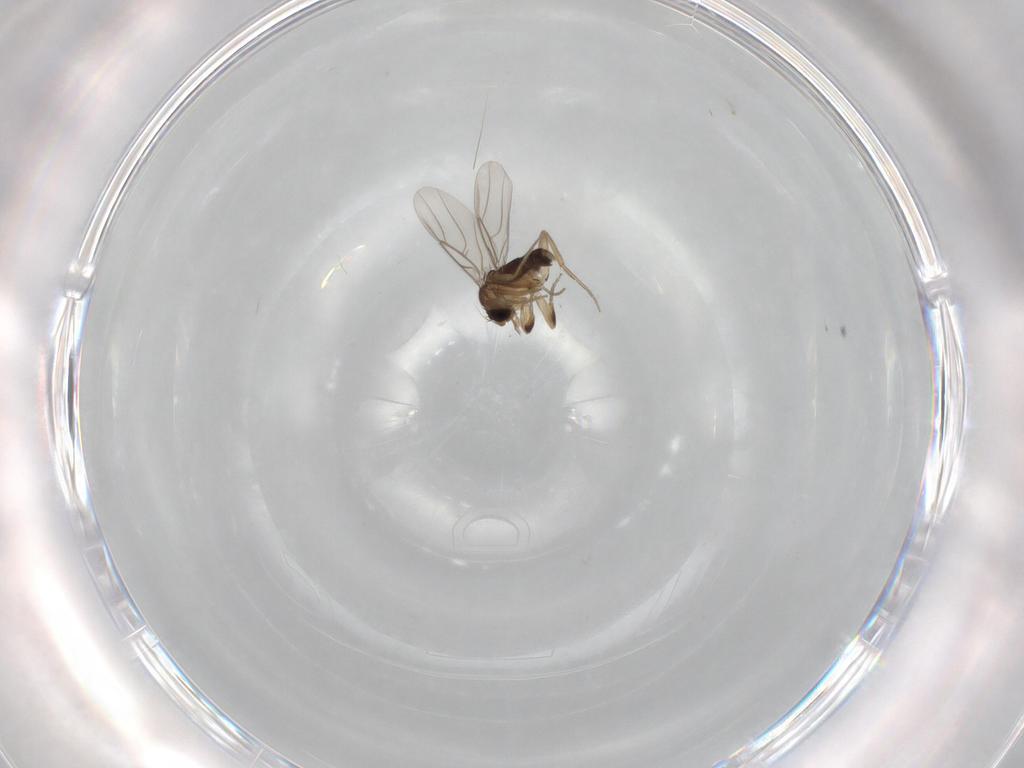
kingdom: Animalia
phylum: Arthropoda
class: Insecta
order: Diptera
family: Phoridae
